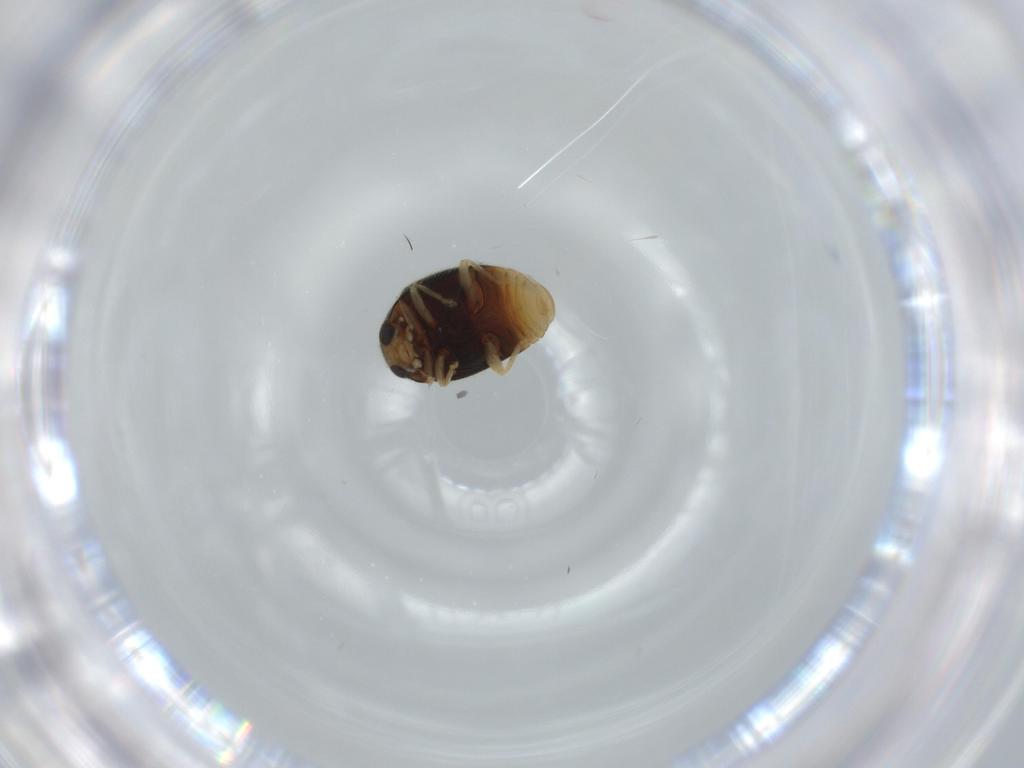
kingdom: Animalia
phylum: Arthropoda
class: Insecta
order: Coleoptera
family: Coccinellidae
